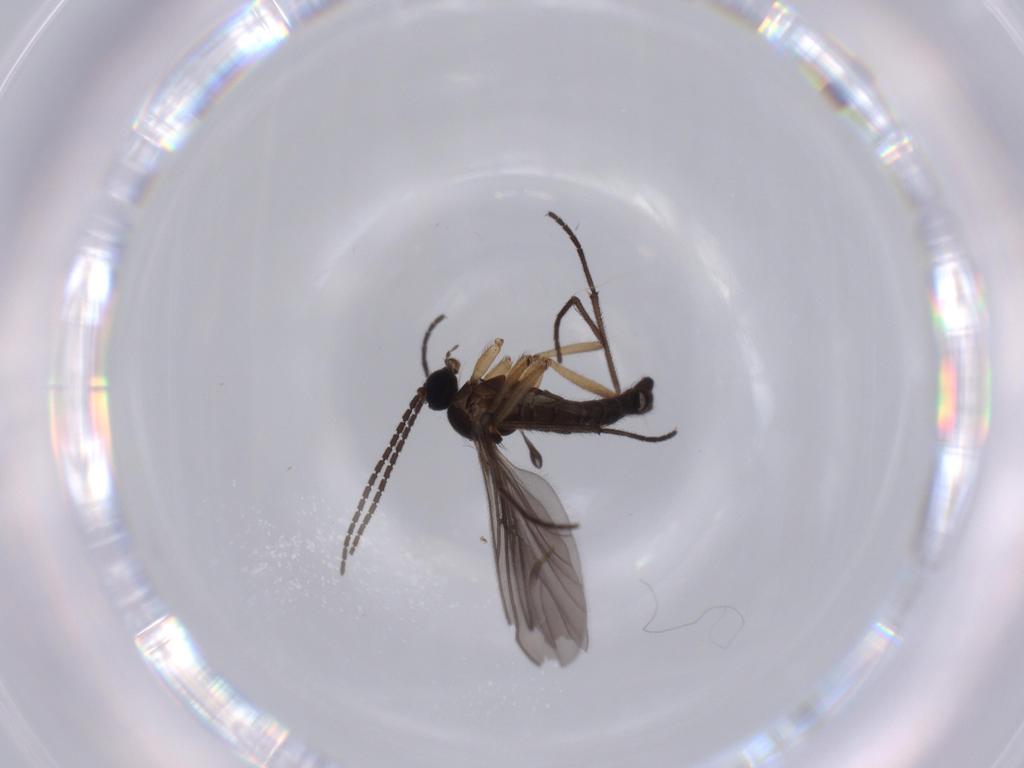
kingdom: Animalia
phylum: Arthropoda
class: Insecta
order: Diptera
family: Sciaridae
